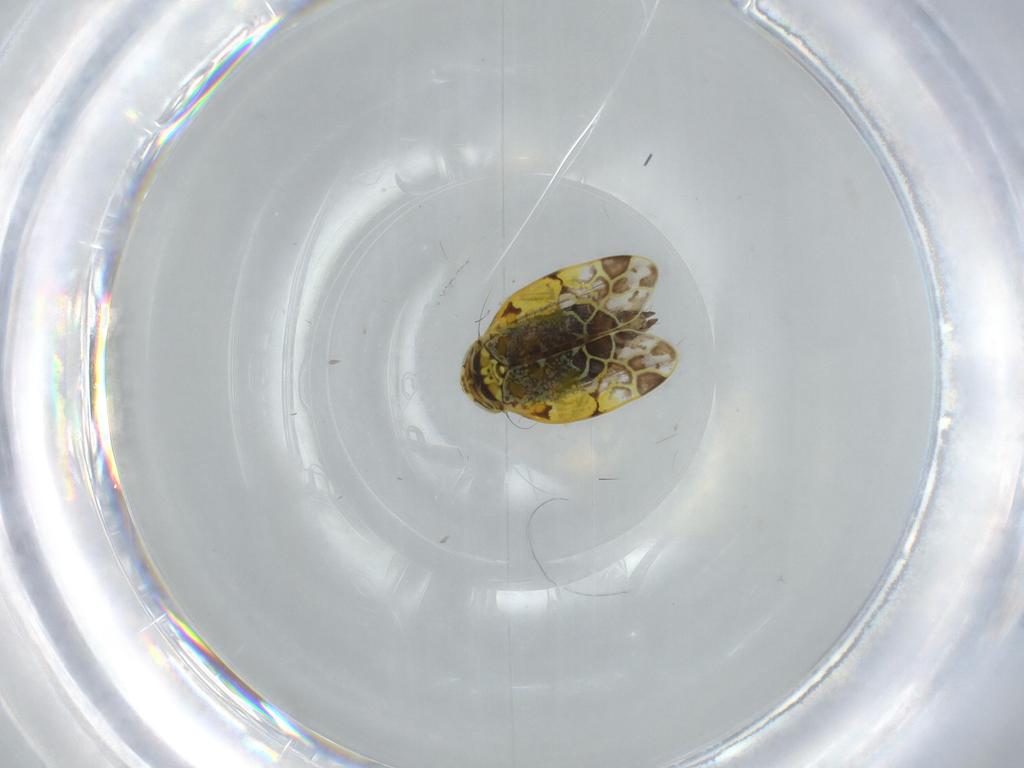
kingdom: Animalia
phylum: Arthropoda
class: Insecta
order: Hemiptera
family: Cicadellidae
